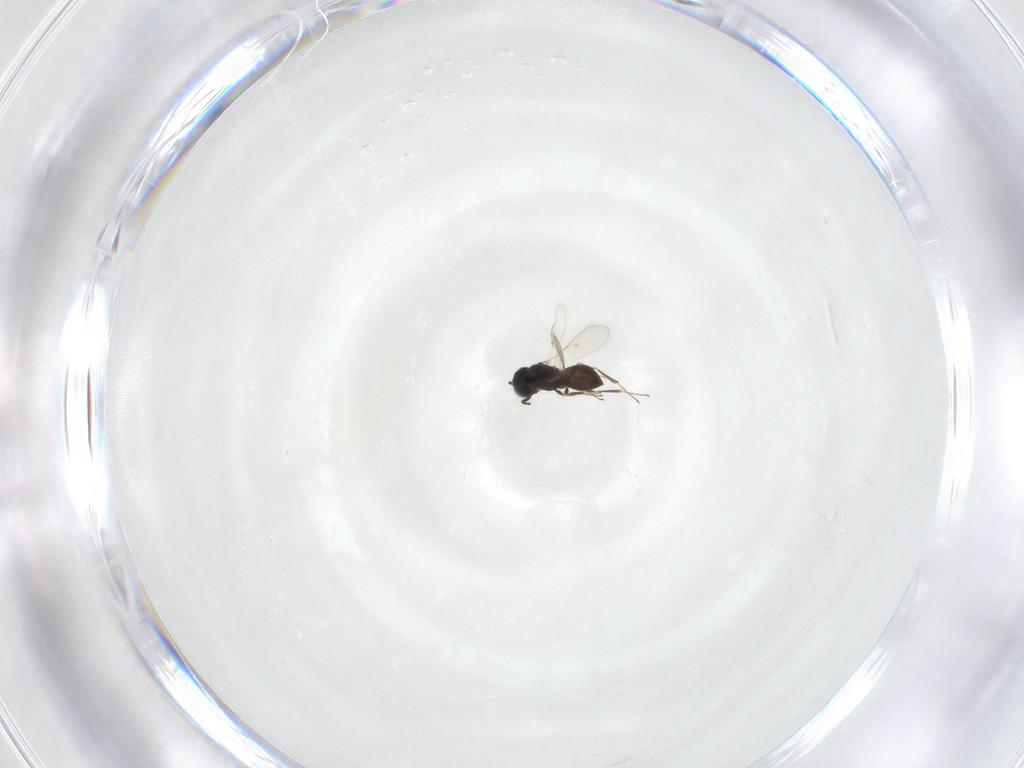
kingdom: Animalia
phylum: Arthropoda
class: Insecta
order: Hymenoptera
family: Scelionidae
